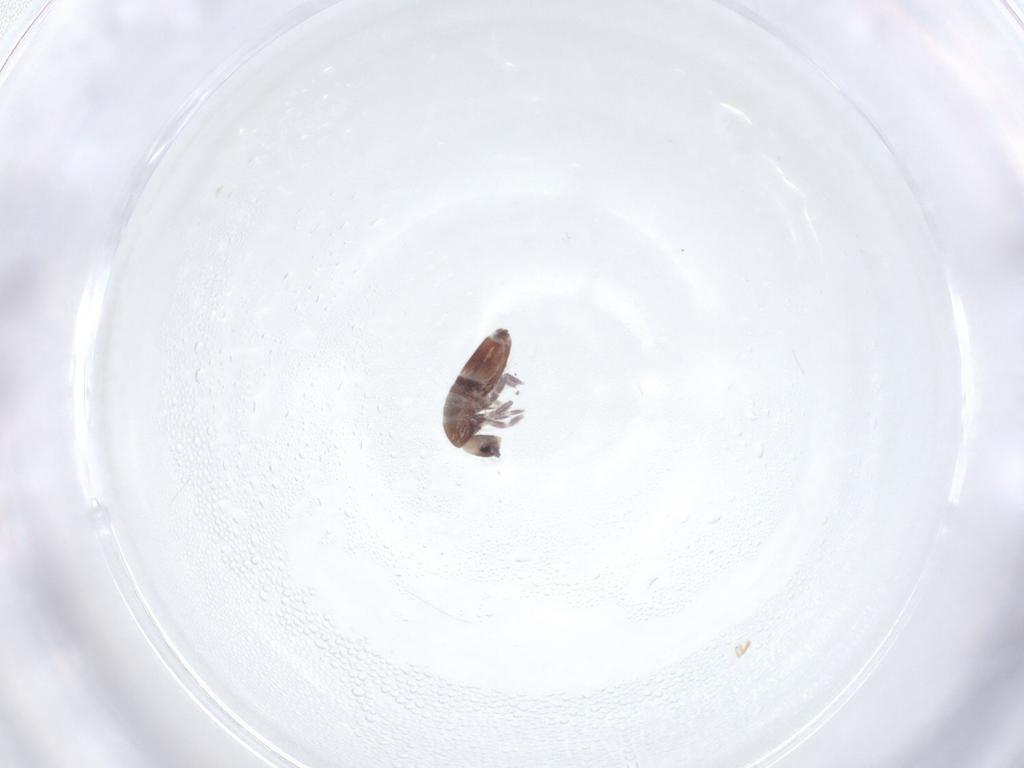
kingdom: Animalia
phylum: Arthropoda
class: Collembola
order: Entomobryomorpha
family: Entomobryidae
